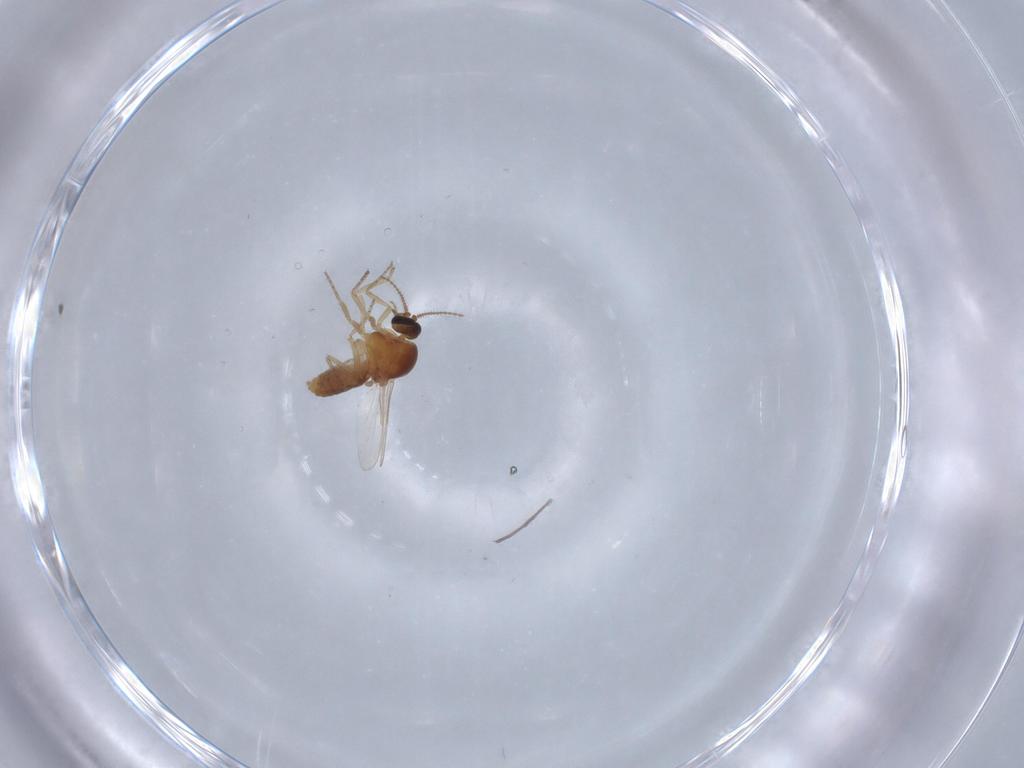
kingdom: Animalia
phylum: Arthropoda
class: Insecta
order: Diptera
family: Ceratopogonidae
